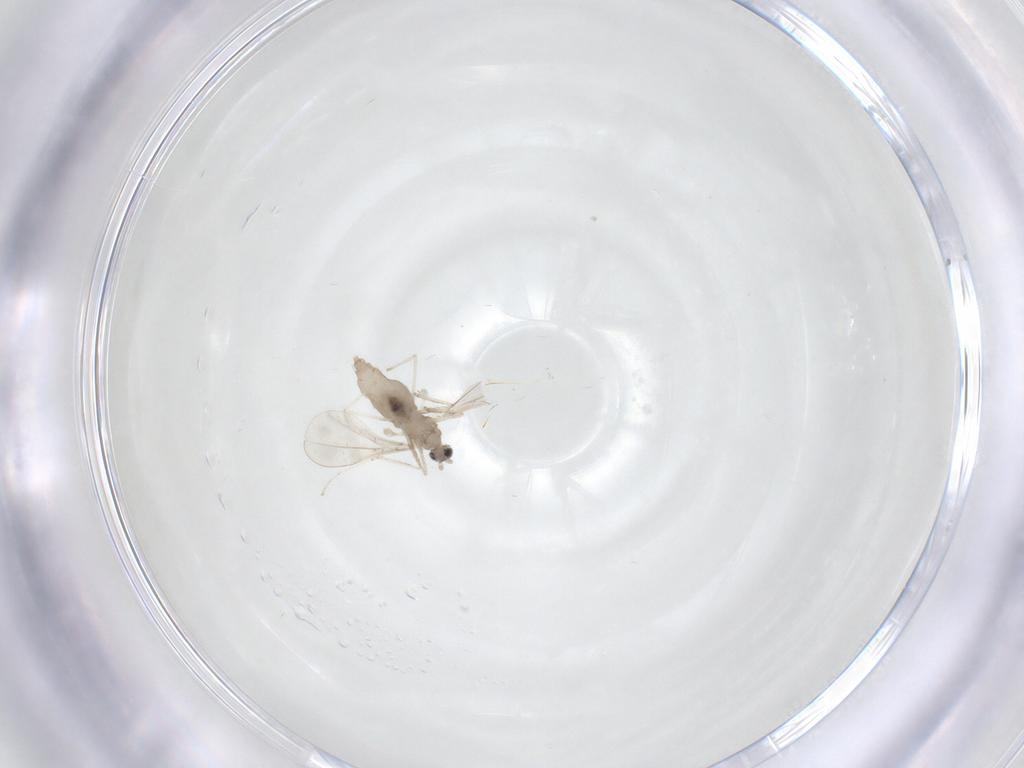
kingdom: Animalia
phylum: Arthropoda
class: Insecta
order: Diptera
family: Cecidomyiidae
